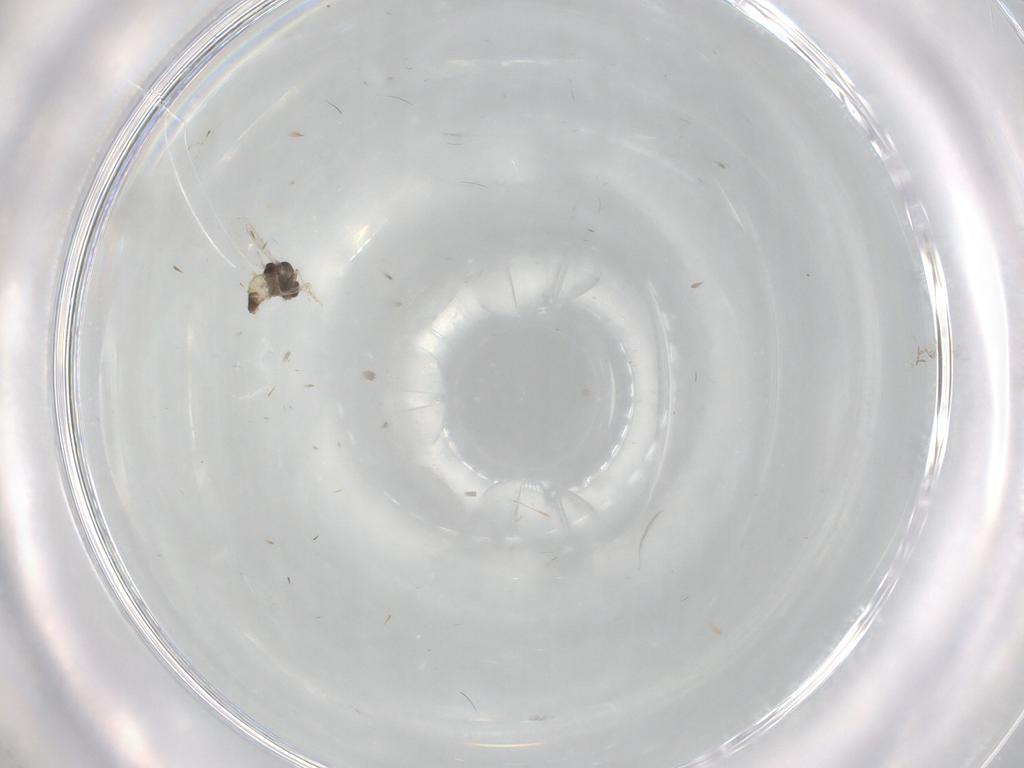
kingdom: Animalia
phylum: Arthropoda
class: Insecta
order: Diptera
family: Chironomidae
